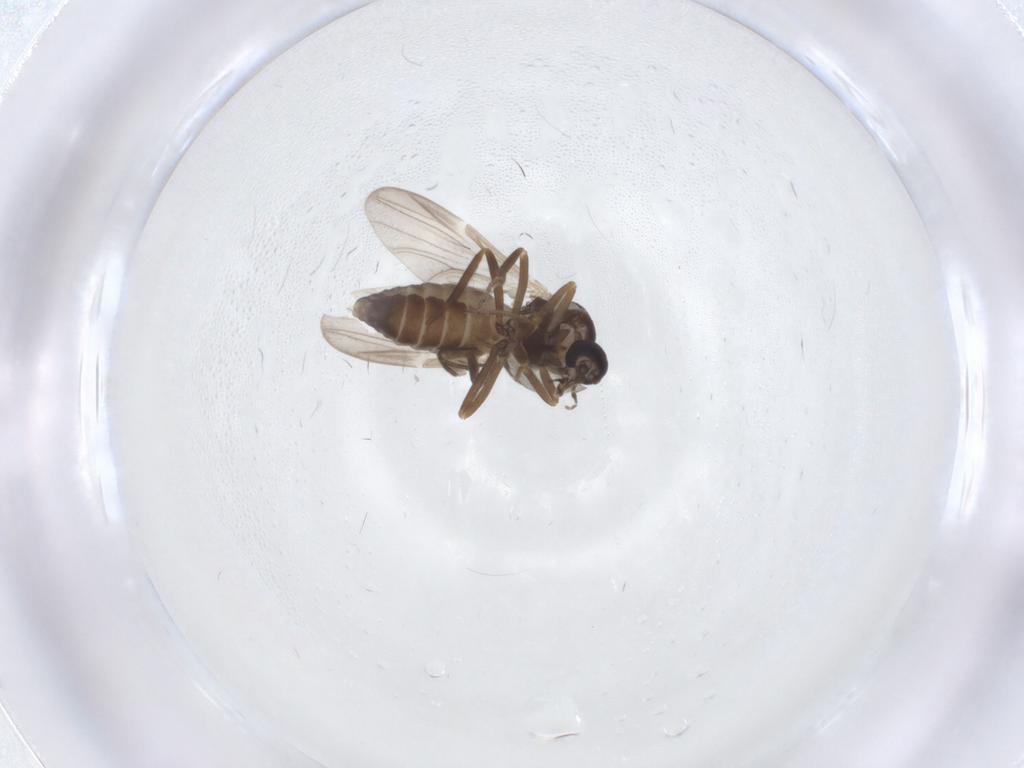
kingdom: Animalia
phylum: Arthropoda
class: Insecta
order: Diptera
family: Ceratopogonidae
